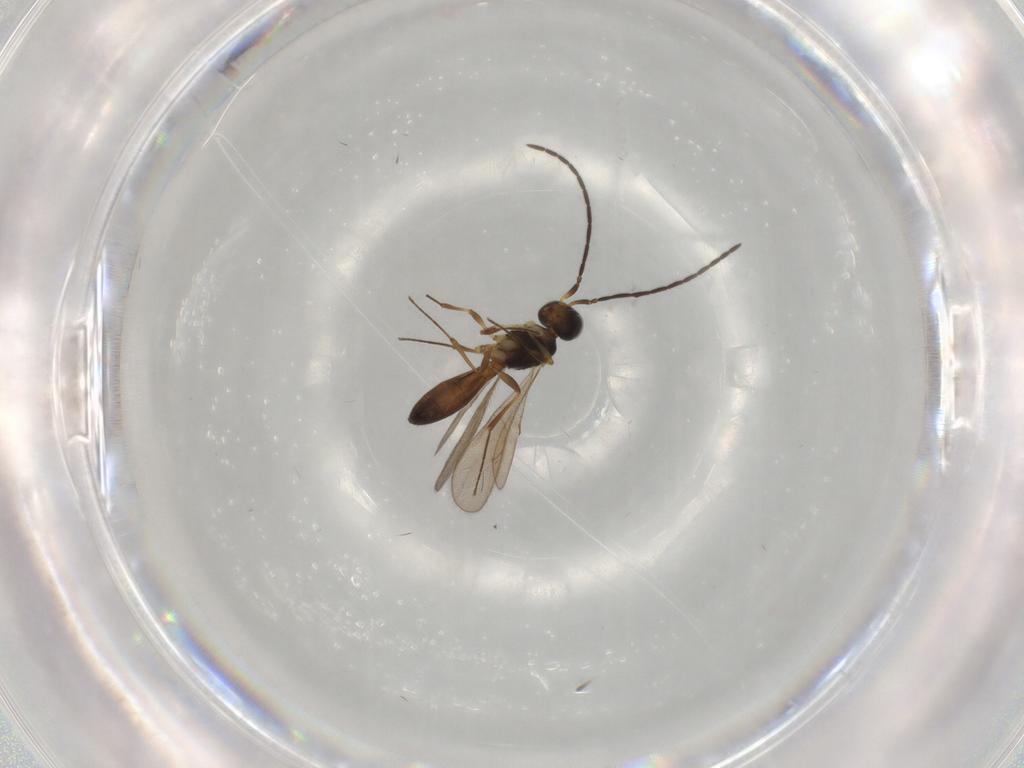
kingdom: Animalia
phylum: Arthropoda
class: Insecta
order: Hymenoptera
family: Scelionidae
